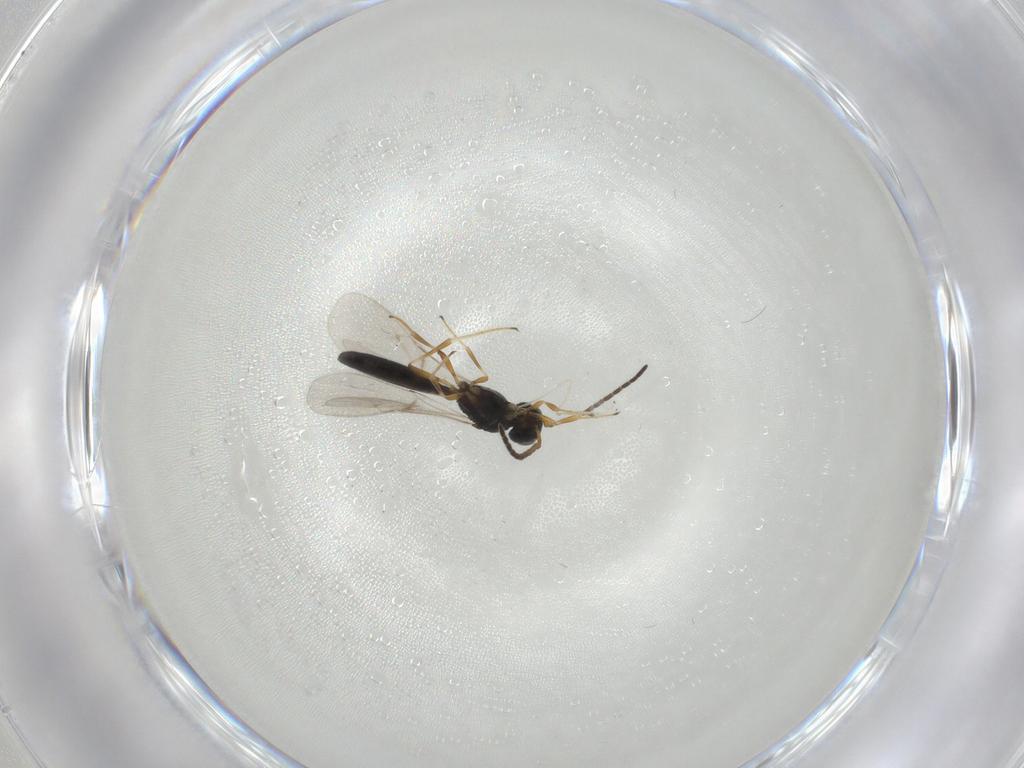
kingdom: Animalia
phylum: Arthropoda
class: Insecta
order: Hymenoptera
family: Scelionidae
